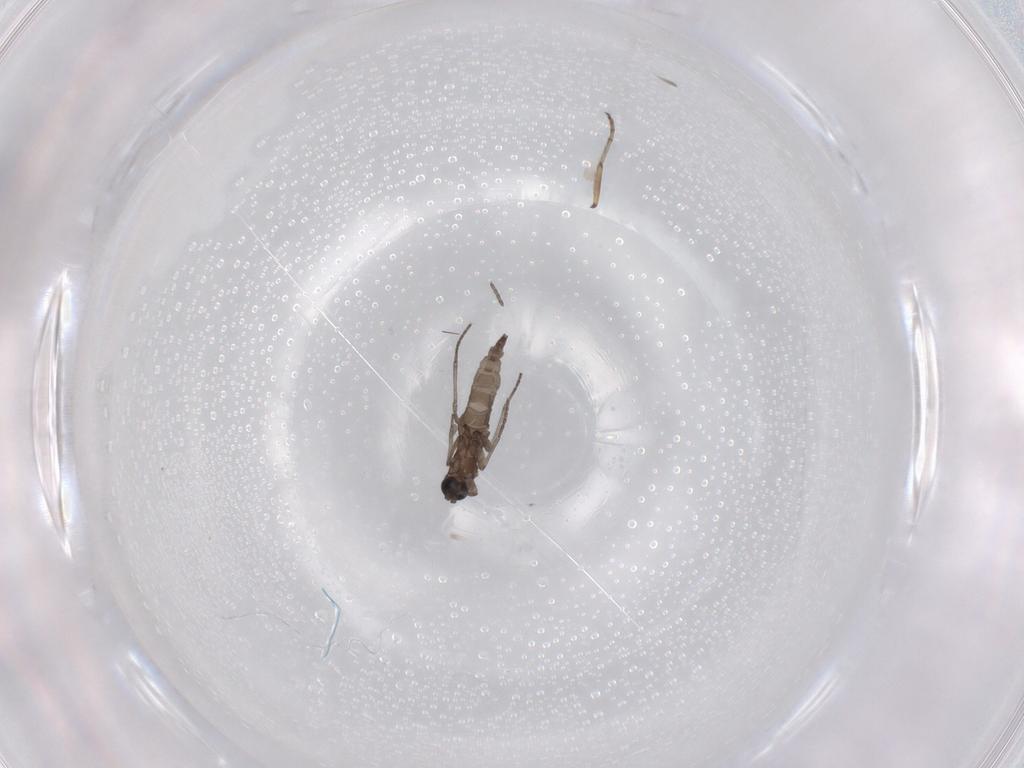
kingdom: Animalia
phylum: Arthropoda
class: Insecta
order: Diptera
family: Ceratopogonidae
